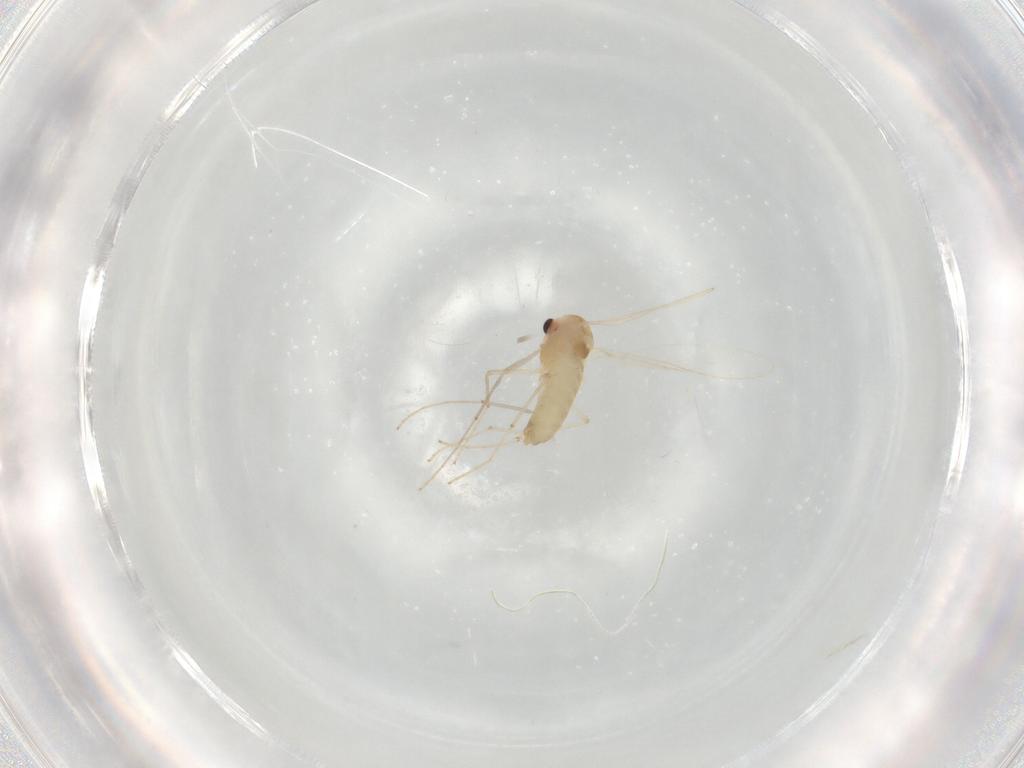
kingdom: Animalia
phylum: Arthropoda
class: Insecta
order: Diptera
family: Chironomidae
